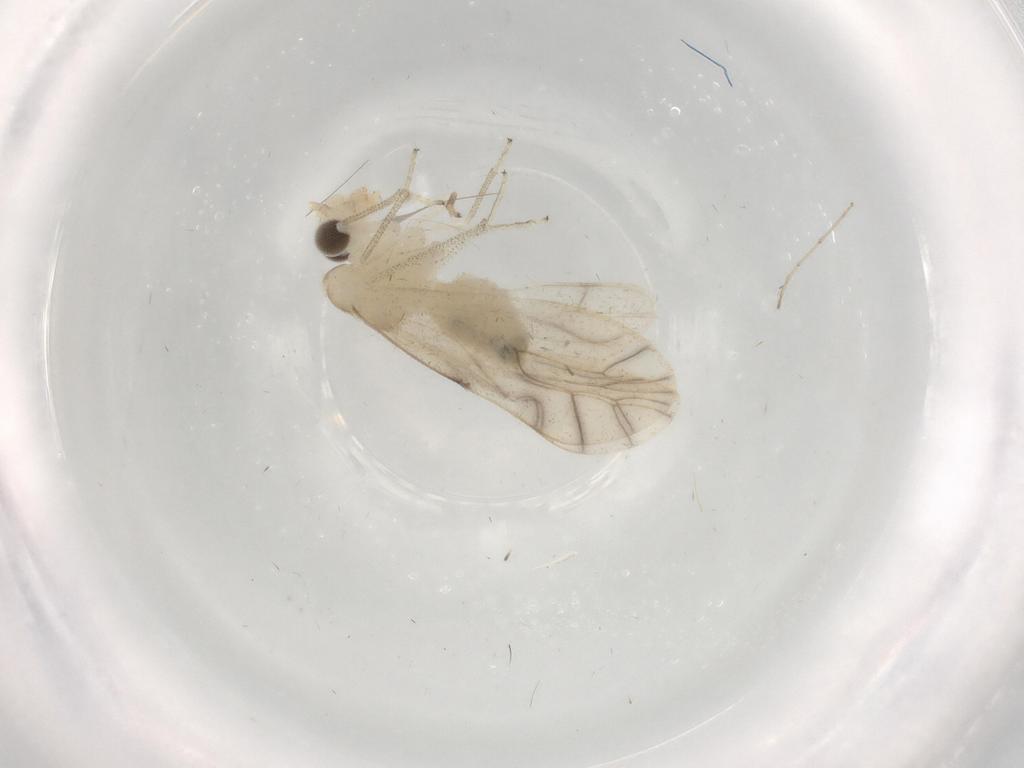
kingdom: Animalia
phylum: Arthropoda
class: Insecta
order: Psocodea
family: Caeciliusidae
